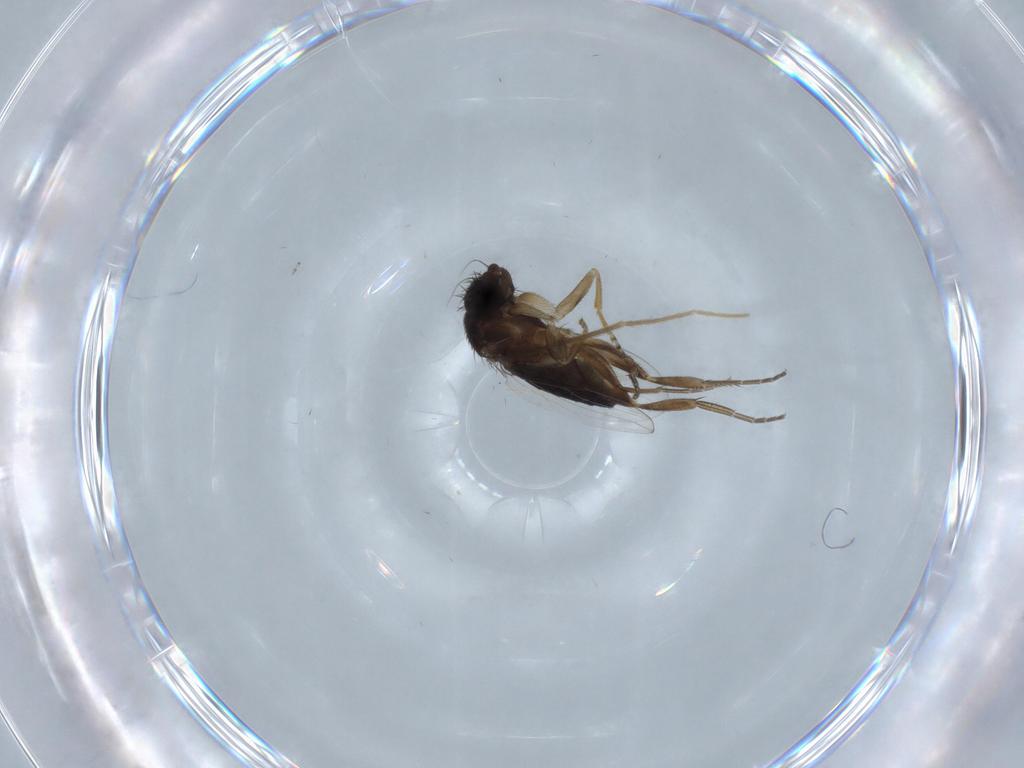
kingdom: Animalia
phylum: Arthropoda
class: Insecta
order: Diptera
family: Phoridae
